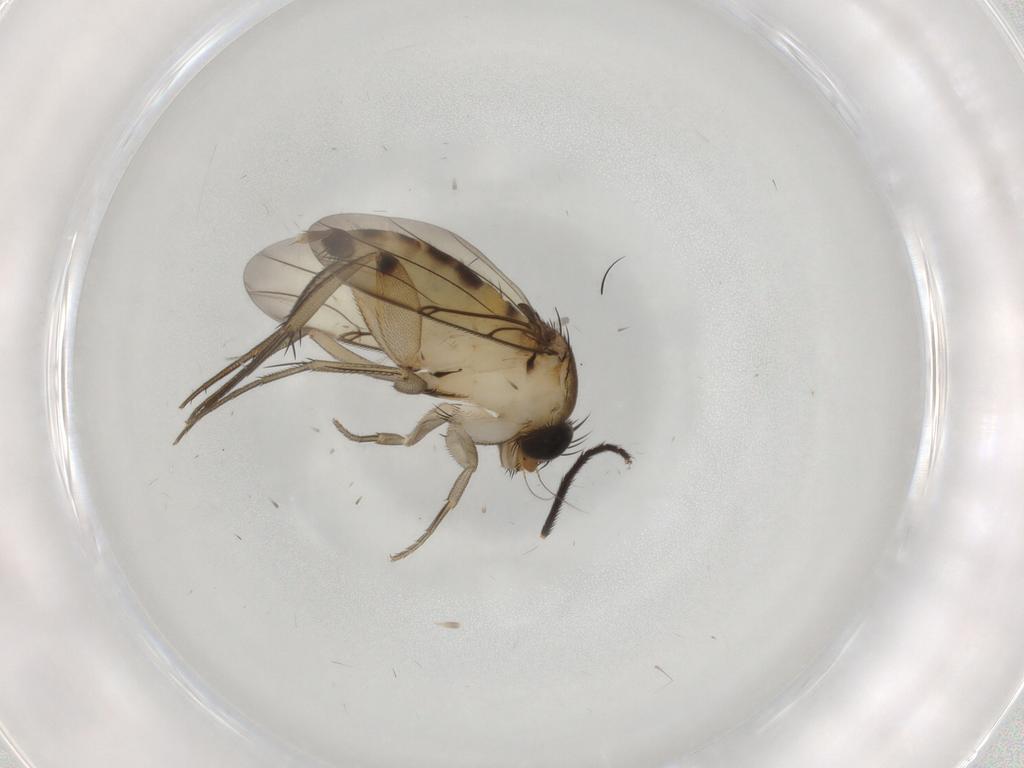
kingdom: Animalia
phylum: Arthropoda
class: Insecta
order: Diptera
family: Phoridae
